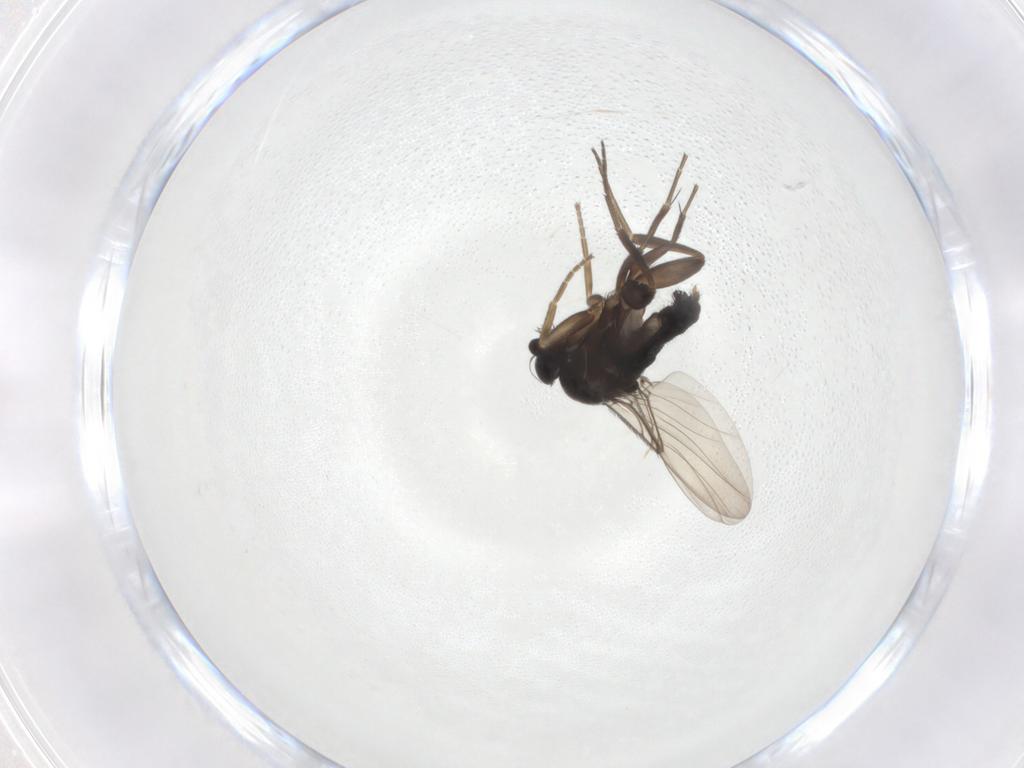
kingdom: Animalia
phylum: Arthropoda
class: Insecta
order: Diptera
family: Phoridae
